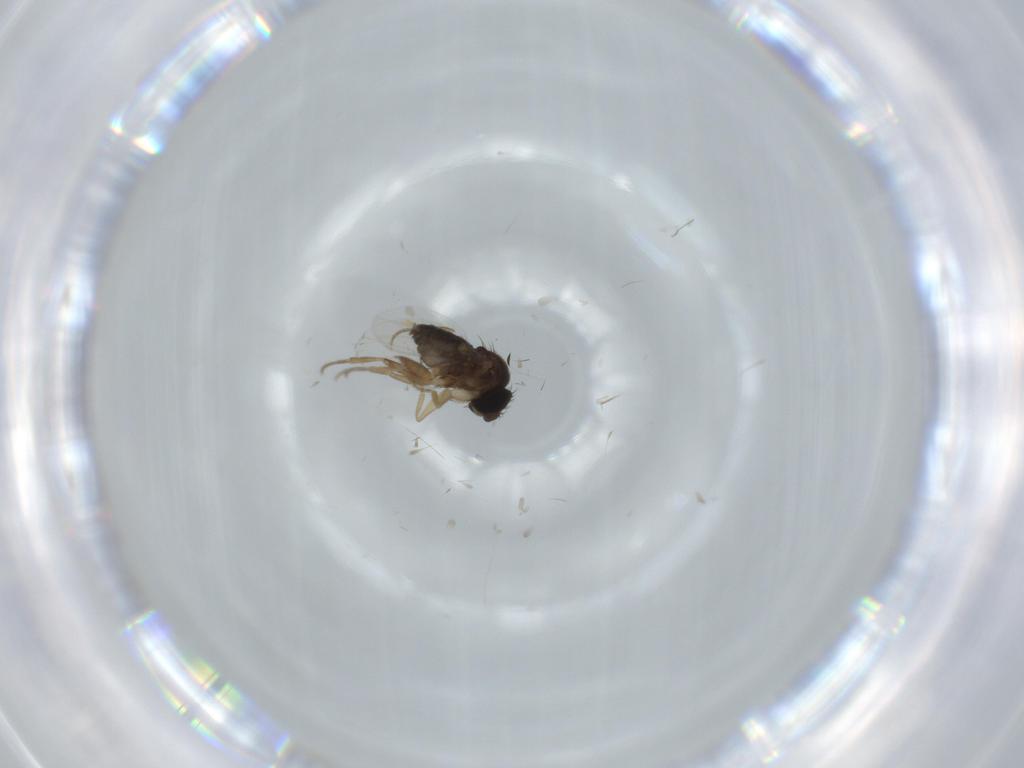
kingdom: Animalia
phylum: Arthropoda
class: Insecta
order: Diptera
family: Phoridae
